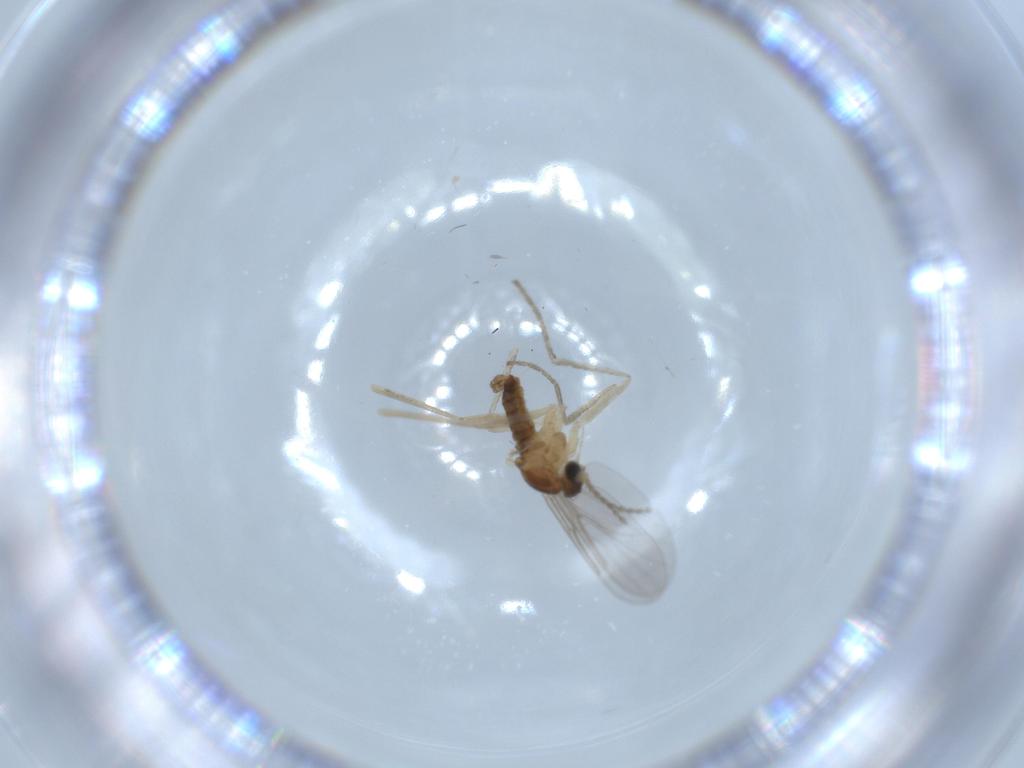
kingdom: Animalia
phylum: Arthropoda
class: Insecta
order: Diptera
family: Cecidomyiidae
